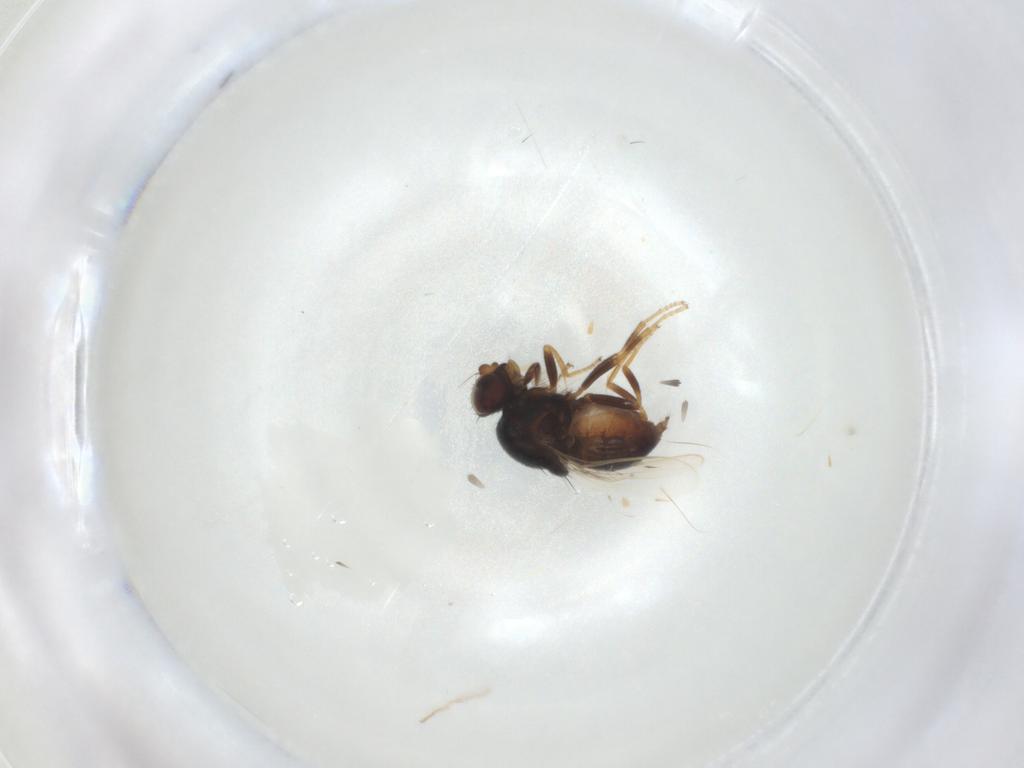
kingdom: Animalia
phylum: Arthropoda
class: Insecta
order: Diptera
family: Chloropidae
